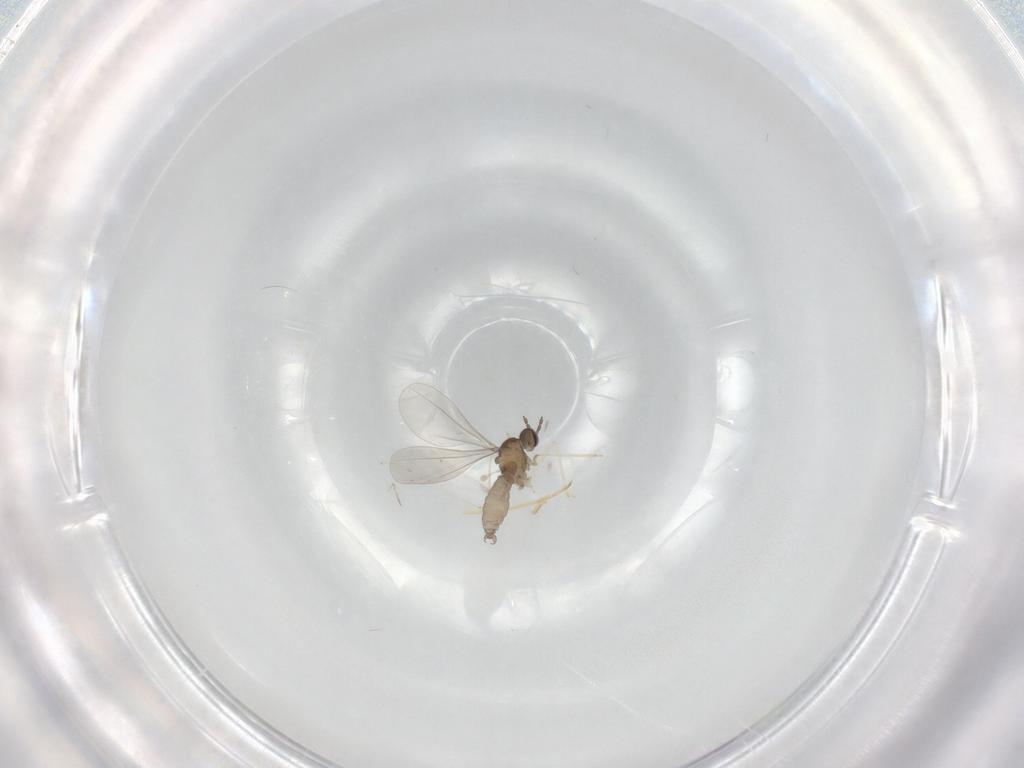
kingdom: Animalia
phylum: Arthropoda
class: Insecta
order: Diptera
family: Cecidomyiidae
